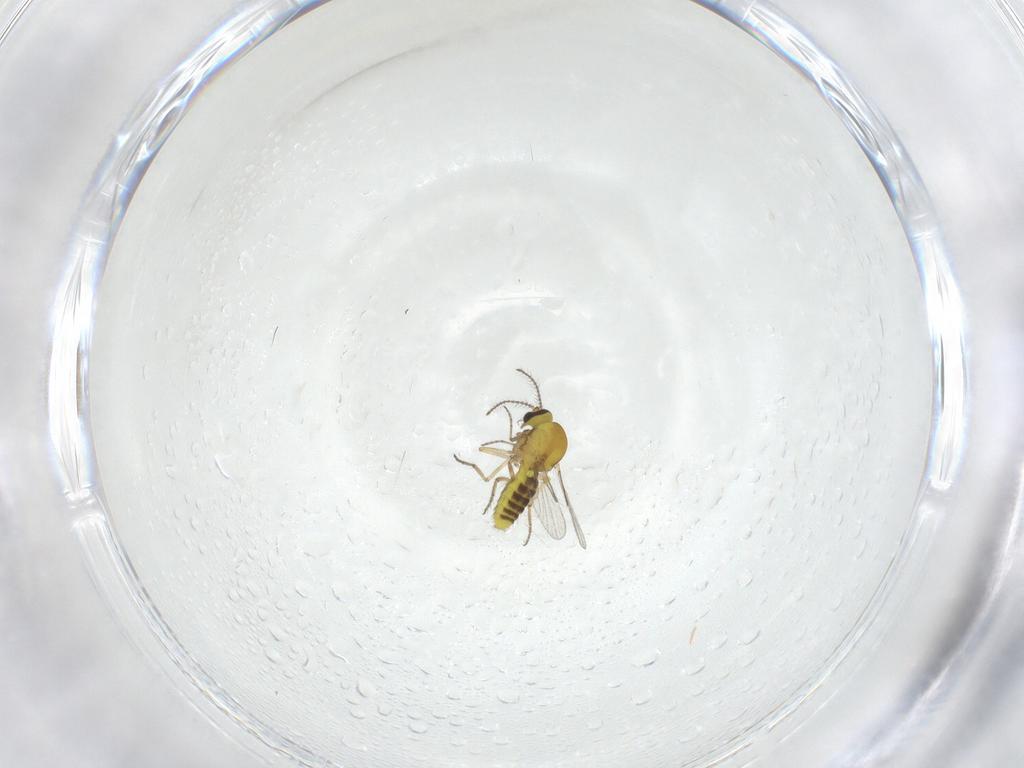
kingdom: Animalia
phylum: Arthropoda
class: Insecta
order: Diptera
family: Ceratopogonidae
